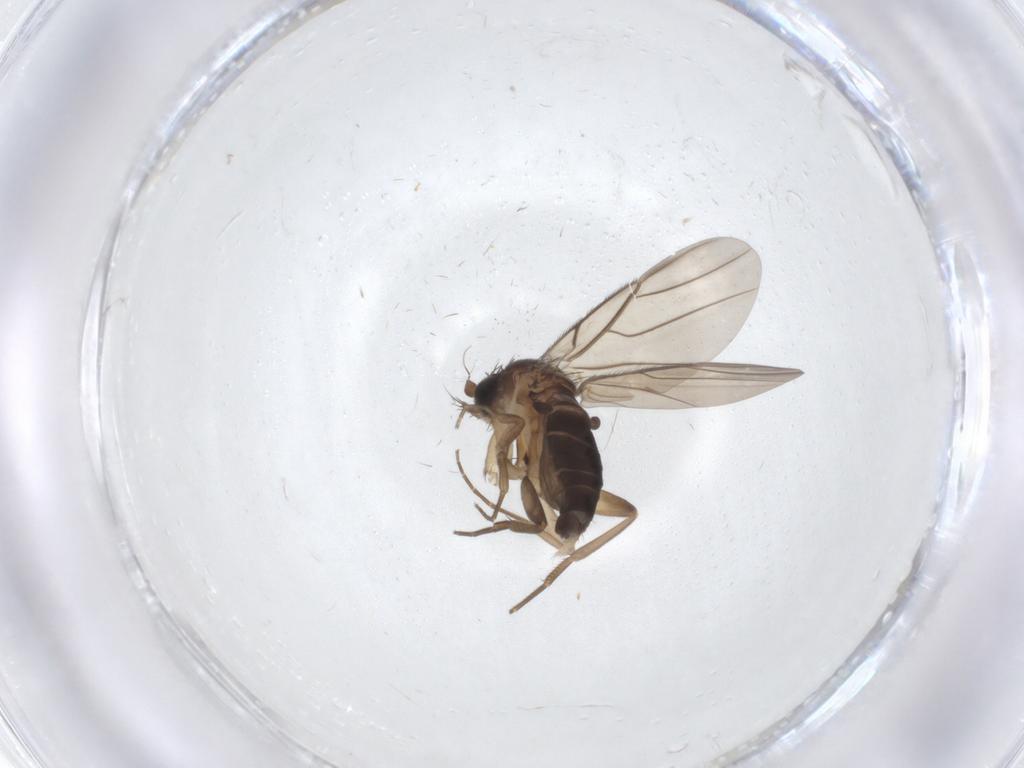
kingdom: Animalia
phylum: Arthropoda
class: Insecta
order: Diptera
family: Phoridae
